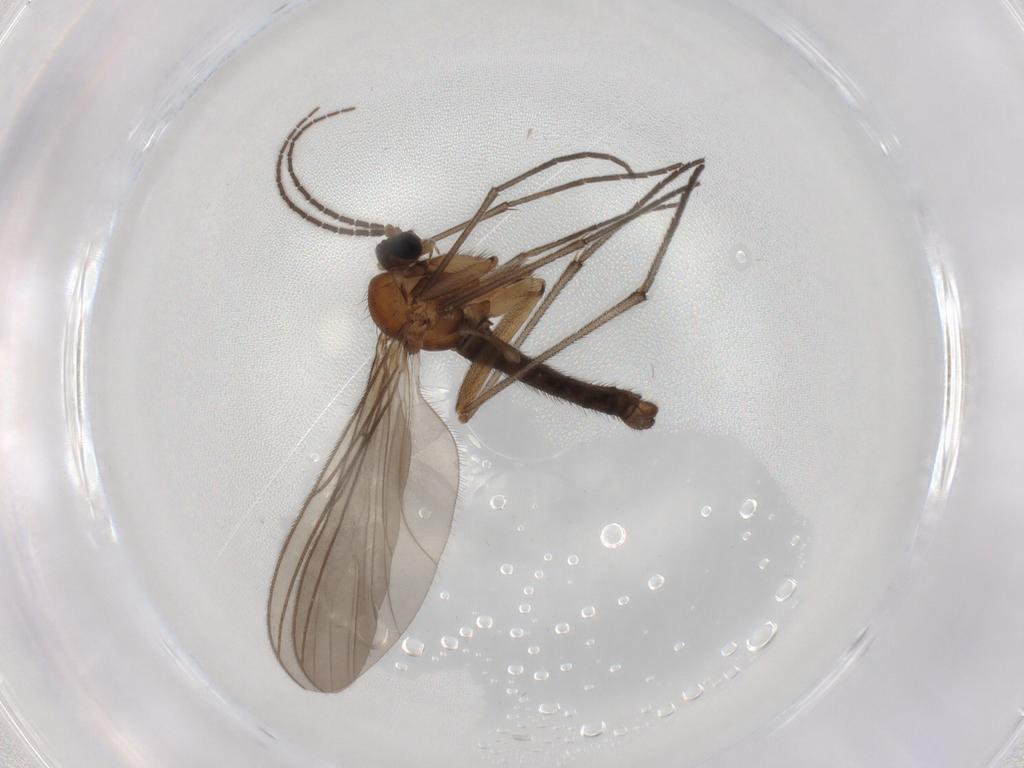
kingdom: Animalia
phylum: Arthropoda
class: Insecta
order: Diptera
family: Sciaridae
